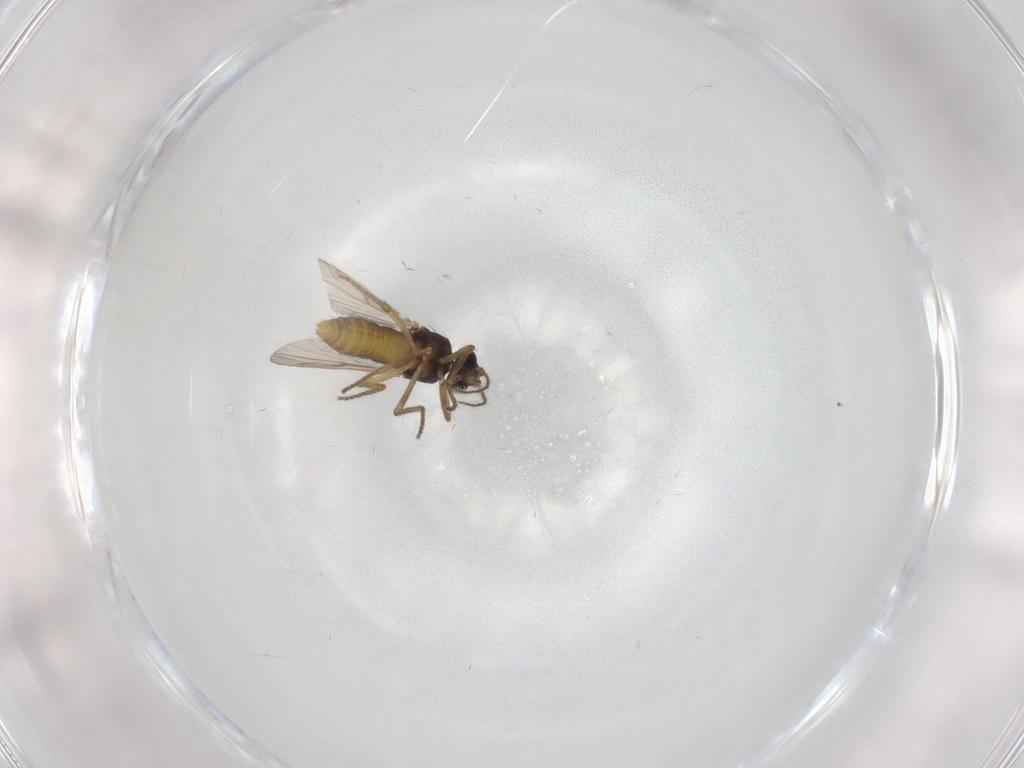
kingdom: Animalia
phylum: Arthropoda
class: Insecta
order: Diptera
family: Ceratopogonidae
